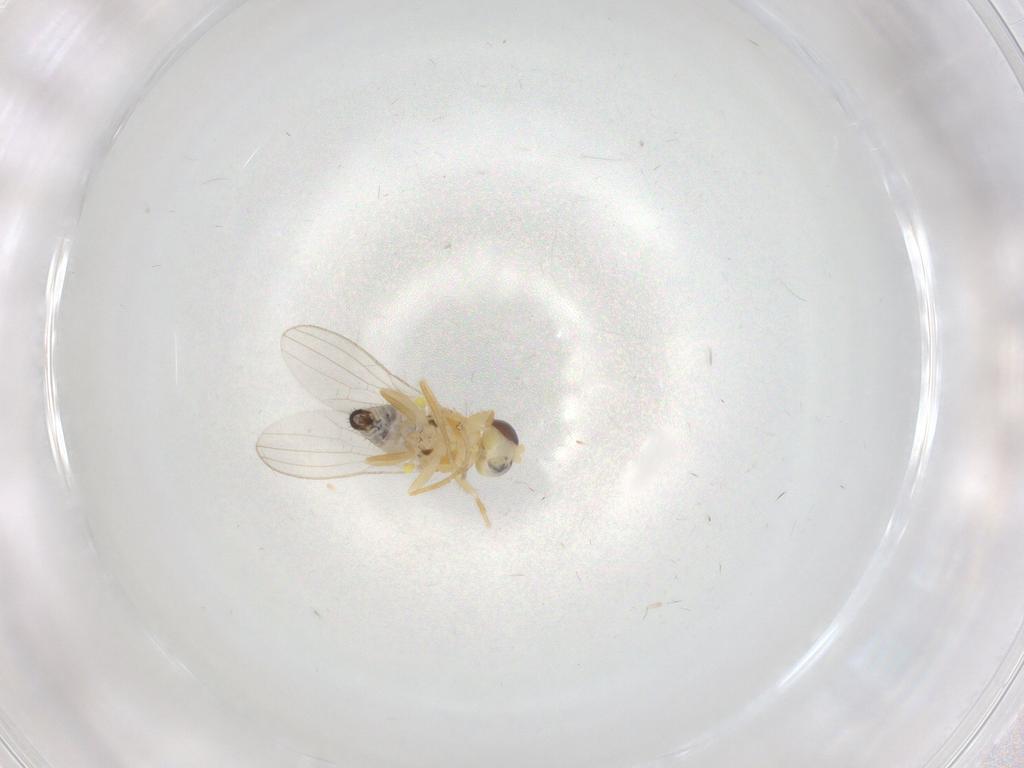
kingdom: Animalia
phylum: Arthropoda
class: Insecta
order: Diptera
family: Chyromyidae
